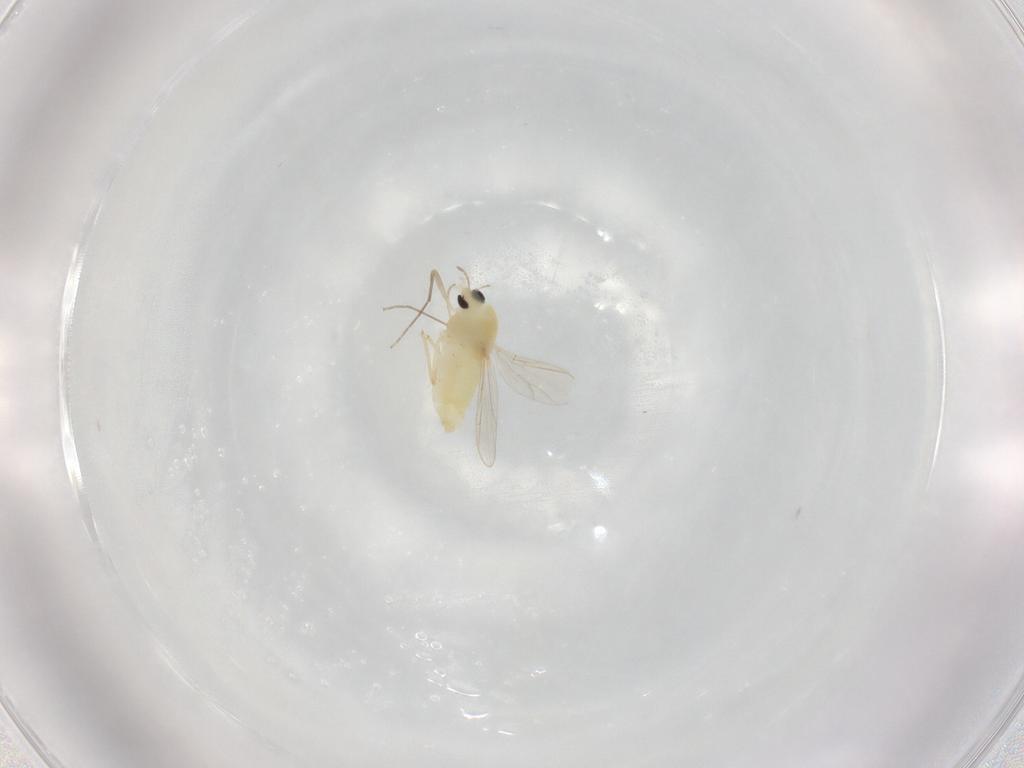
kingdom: Animalia
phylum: Arthropoda
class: Insecta
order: Diptera
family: Chironomidae
